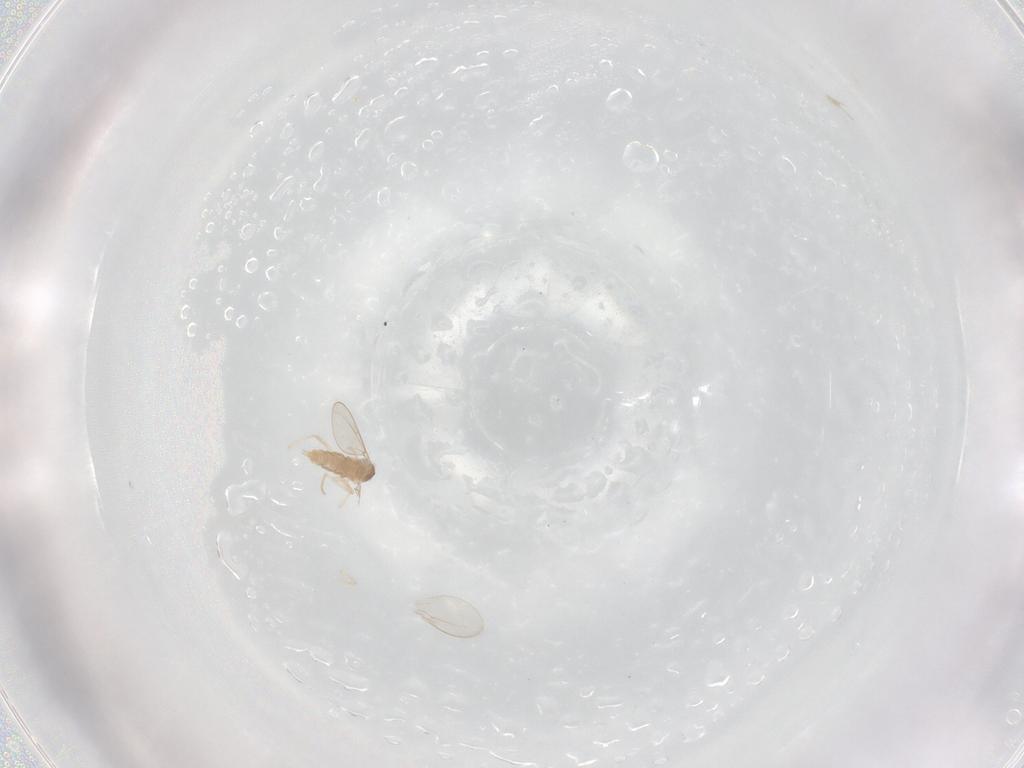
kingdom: Animalia
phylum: Arthropoda
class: Insecta
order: Diptera
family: Cecidomyiidae
